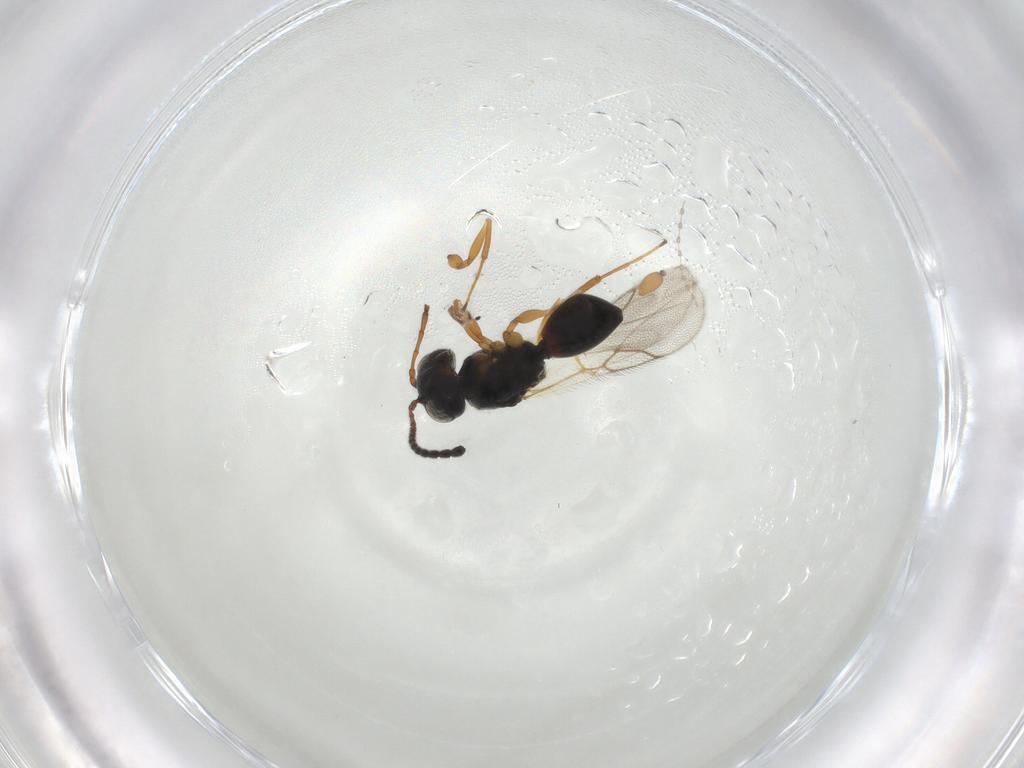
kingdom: Animalia
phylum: Arthropoda
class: Insecta
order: Hymenoptera
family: Figitidae
